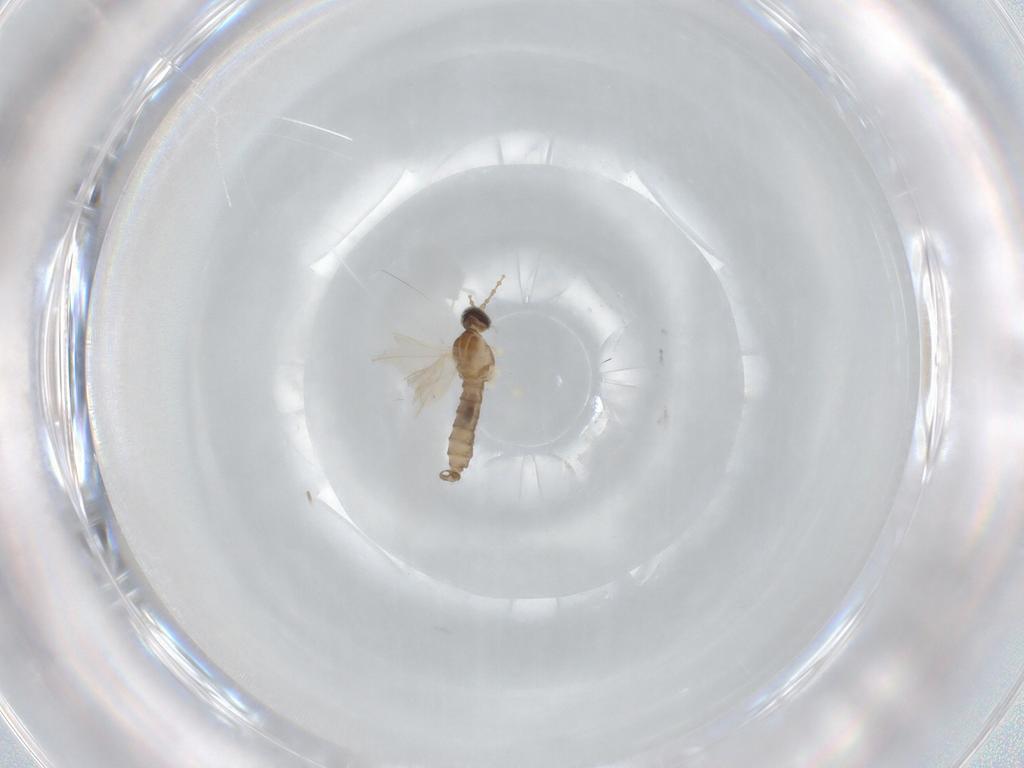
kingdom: Animalia
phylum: Arthropoda
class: Insecta
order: Diptera
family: Cecidomyiidae
